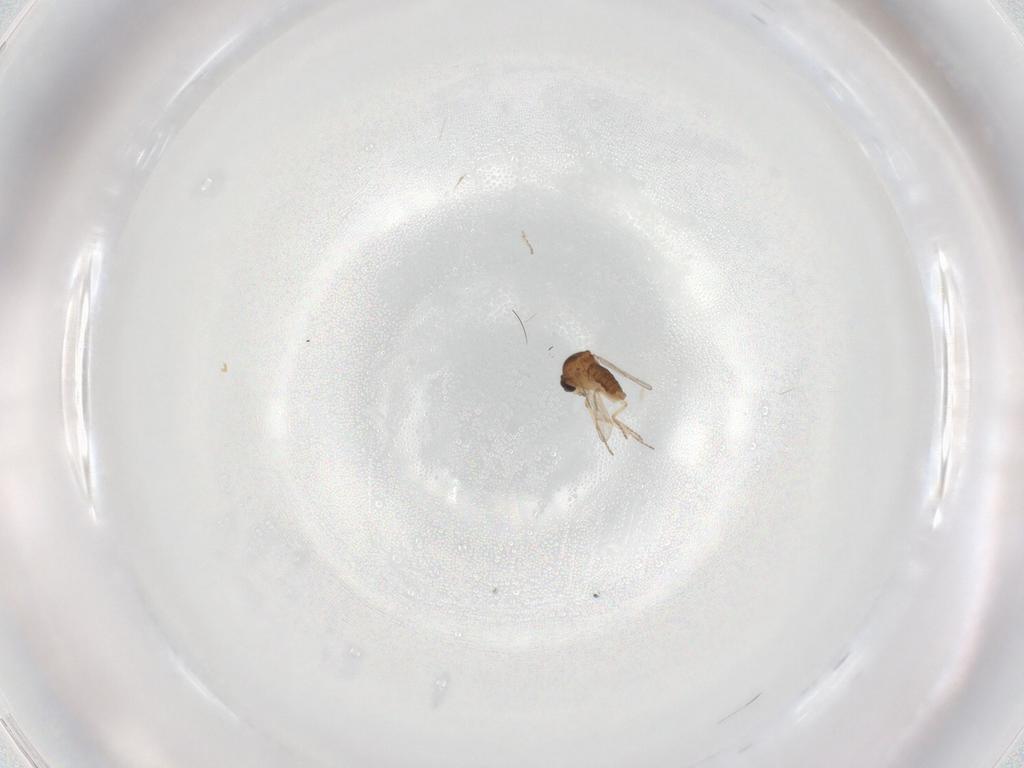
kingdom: Animalia
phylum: Arthropoda
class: Insecta
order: Diptera
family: Ceratopogonidae
